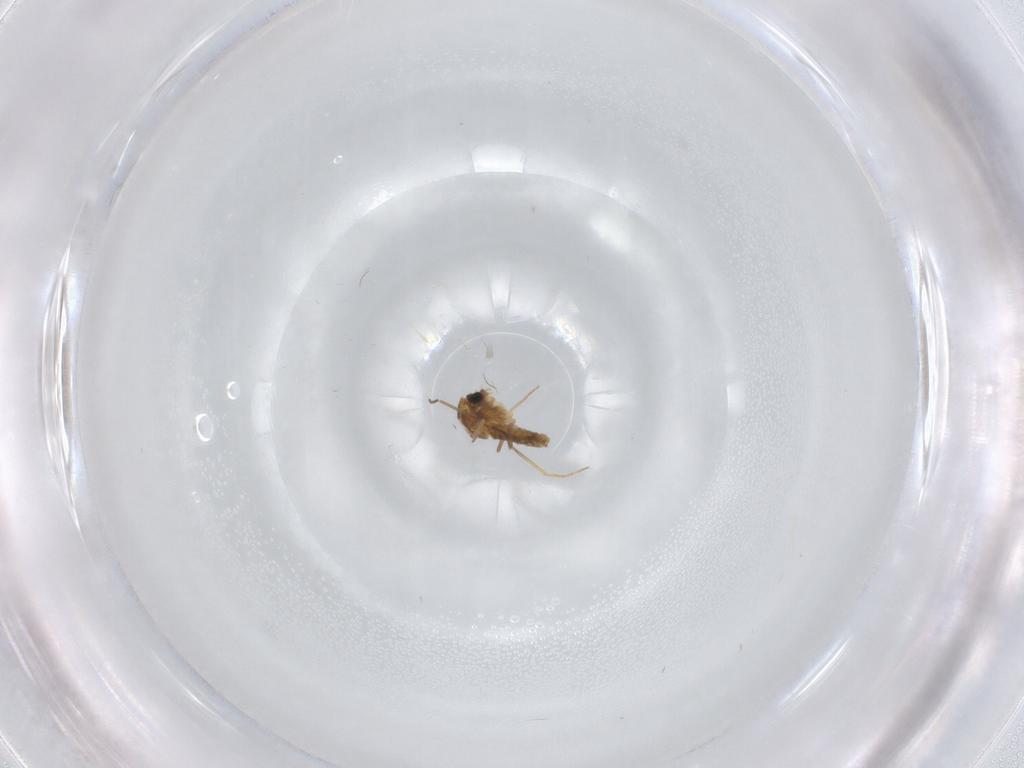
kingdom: Animalia
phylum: Arthropoda
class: Insecta
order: Diptera
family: Chironomidae
